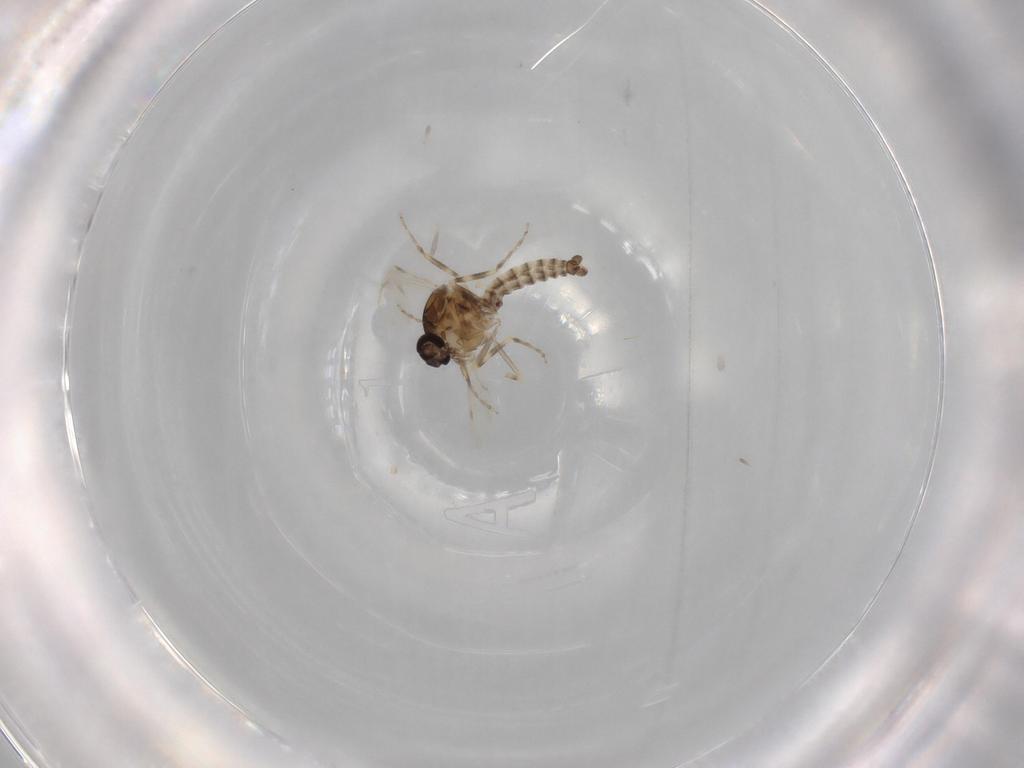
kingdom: Animalia
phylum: Arthropoda
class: Insecta
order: Diptera
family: Ceratopogonidae
